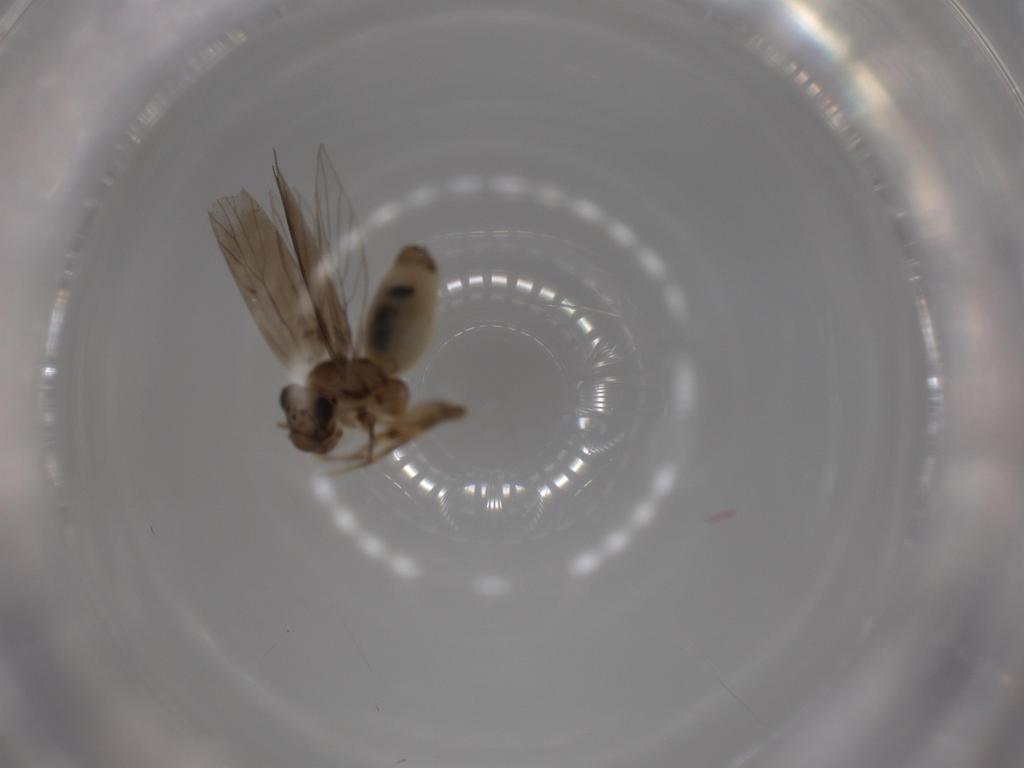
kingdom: Animalia
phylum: Arthropoda
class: Insecta
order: Psocodea
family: Lepidopsocidae
